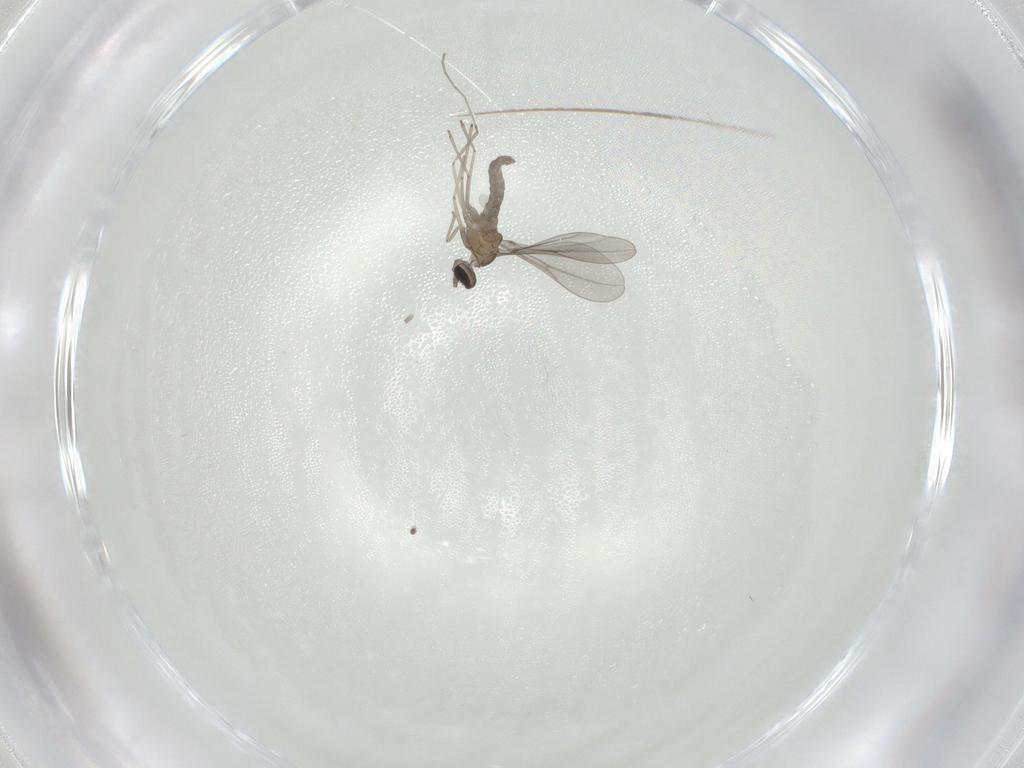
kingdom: Animalia
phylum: Arthropoda
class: Insecta
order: Diptera
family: Cecidomyiidae
